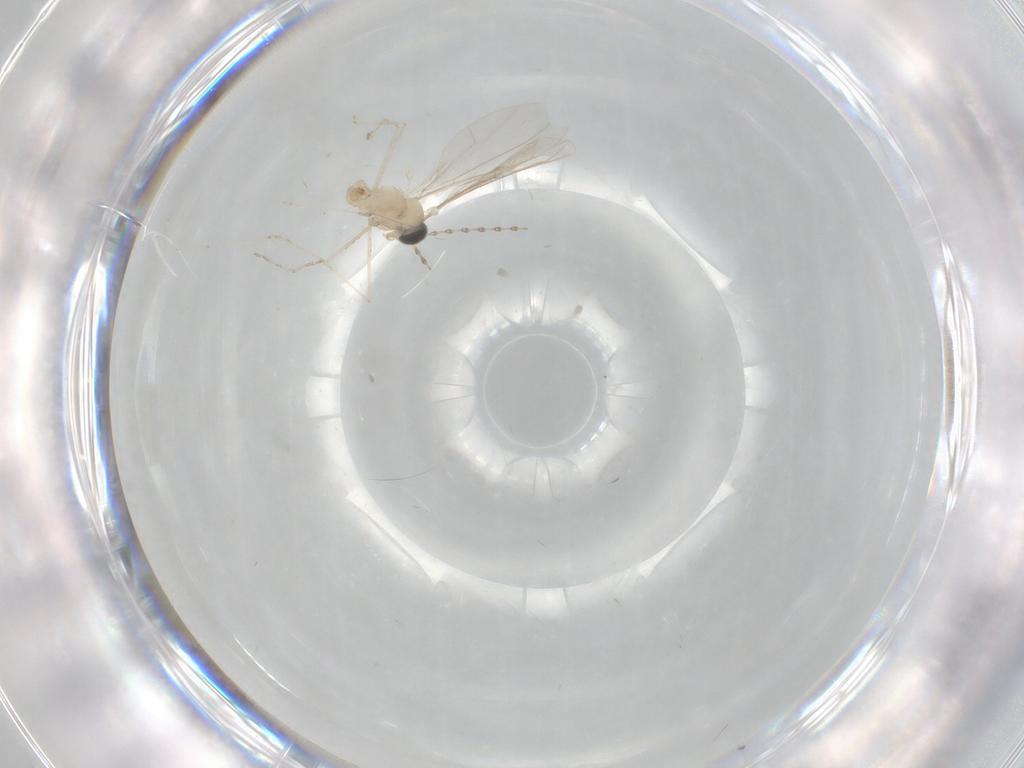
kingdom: Animalia
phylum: Arthropoda
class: Insecta
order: Diptera
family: Cecidomyiidae
